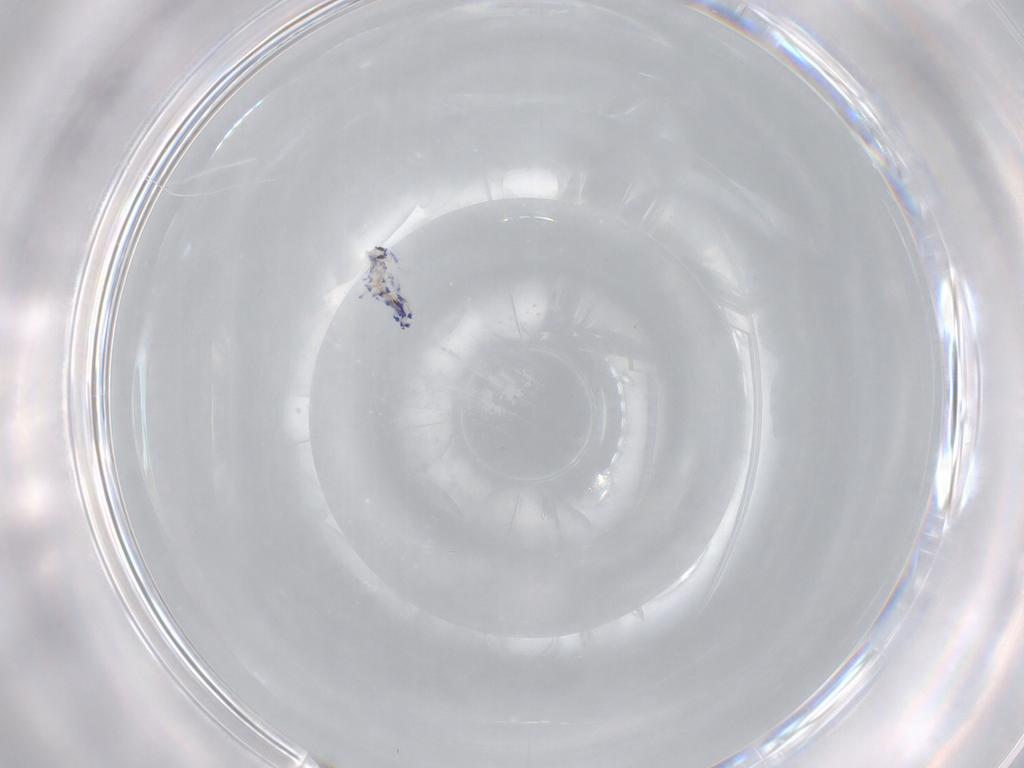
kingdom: Animalia
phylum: Arthropoda
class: Collembola
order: Entomobryomorpha
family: Entomobryidae
